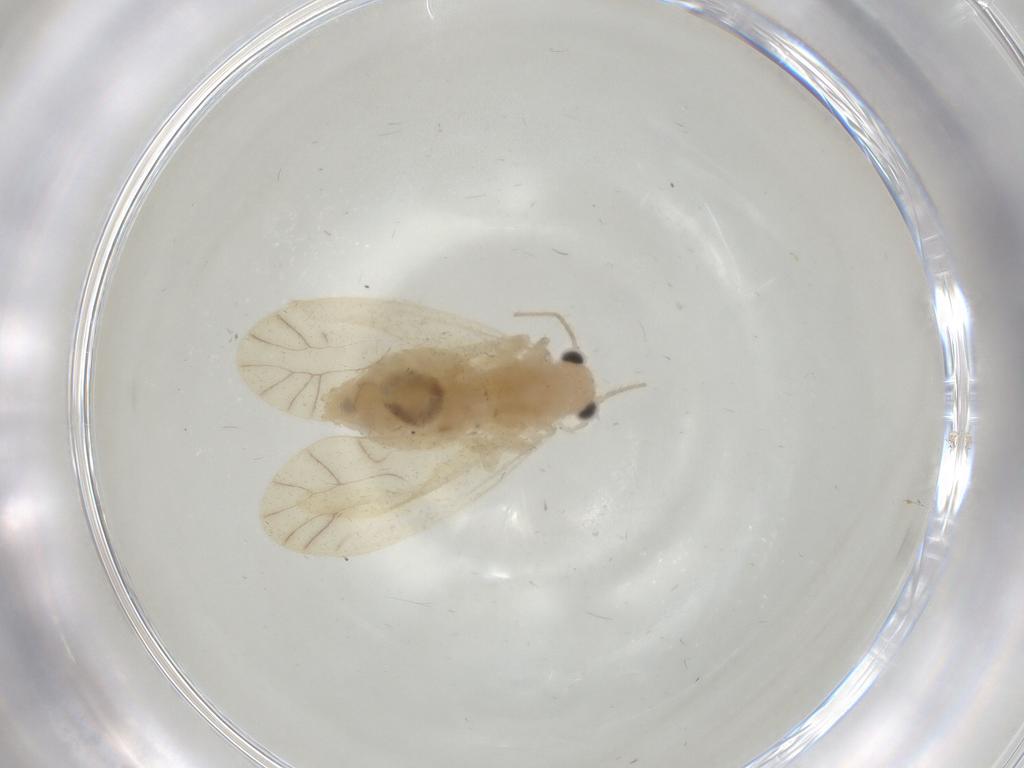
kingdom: Animalia
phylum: Arthropoda
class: Insecta
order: Psocodea
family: Caeciliusidae
